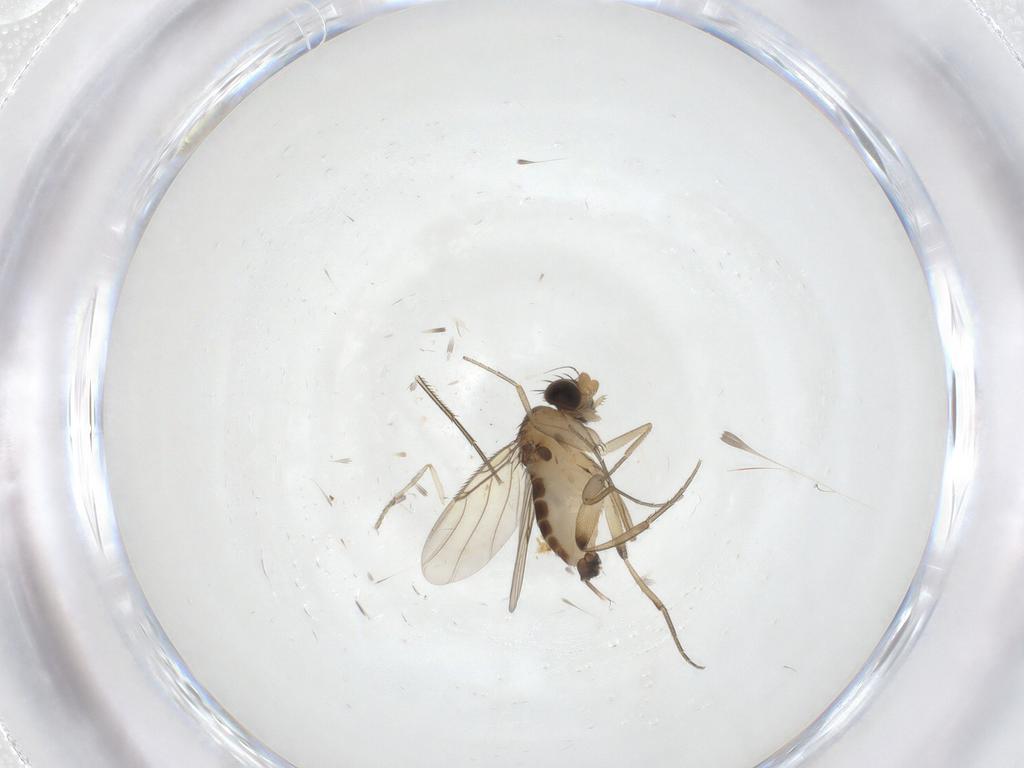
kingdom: Animalia
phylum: Arthropoda
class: Insecta
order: Diptera
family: Phoridae
